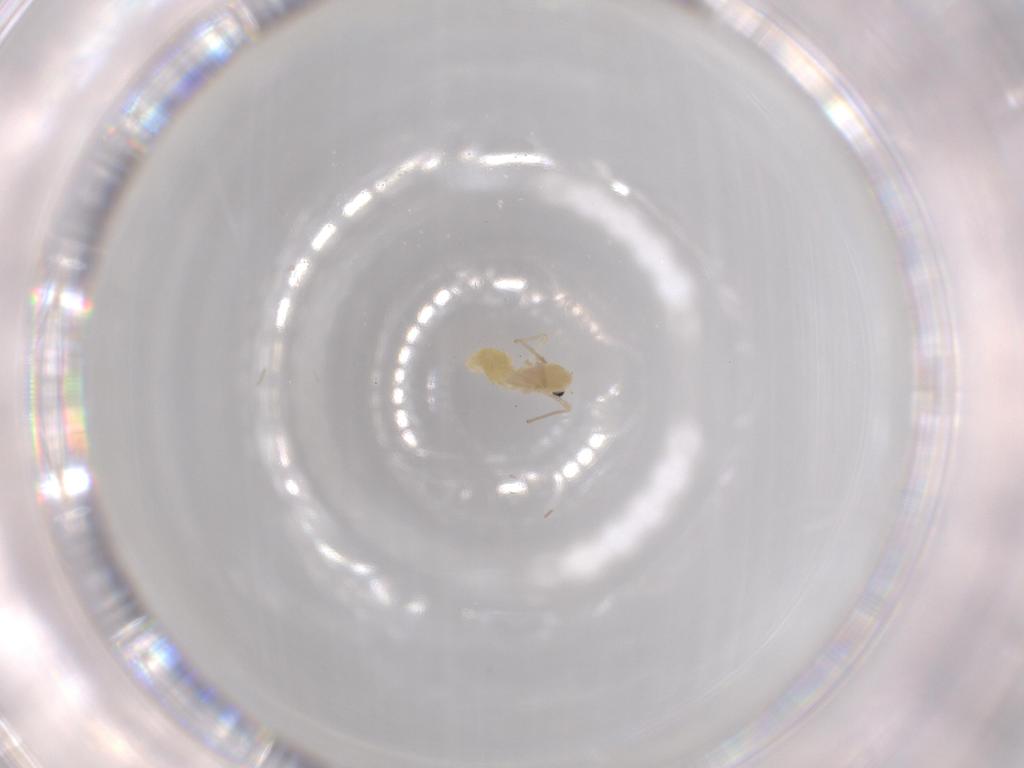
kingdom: Animalia
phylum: Arthropoda
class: Insecta
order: Diptera
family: Chironomidae
